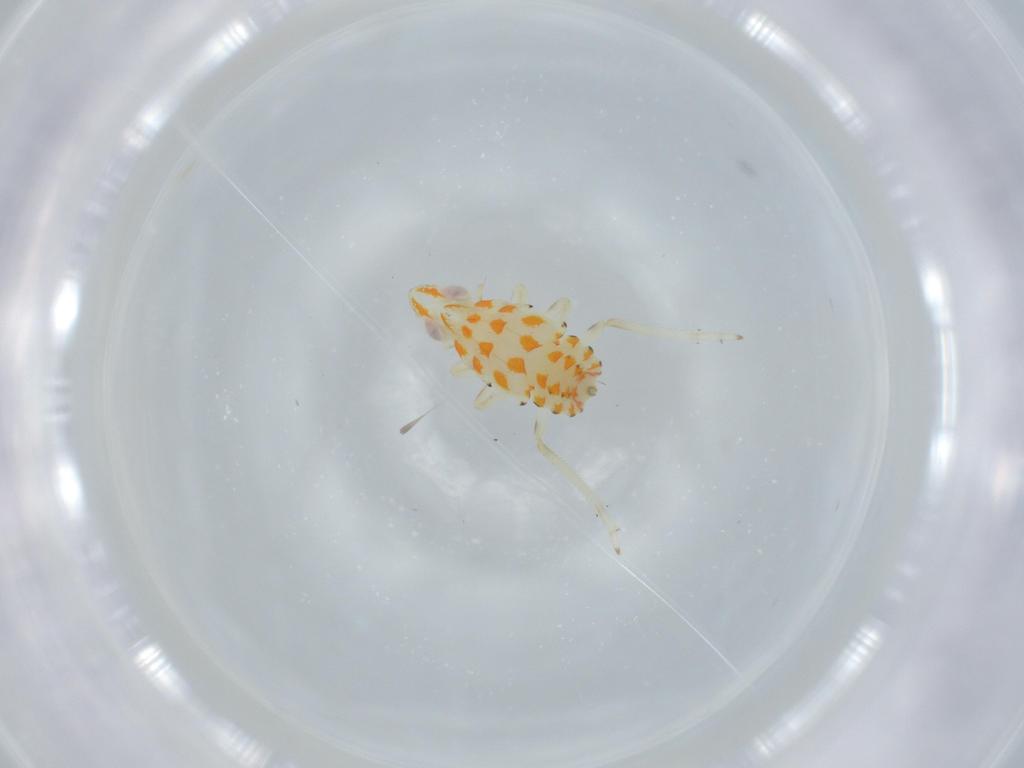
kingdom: Animalia
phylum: Arthropoda
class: Insecta
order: Hemiptera
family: Tropiduchidae
